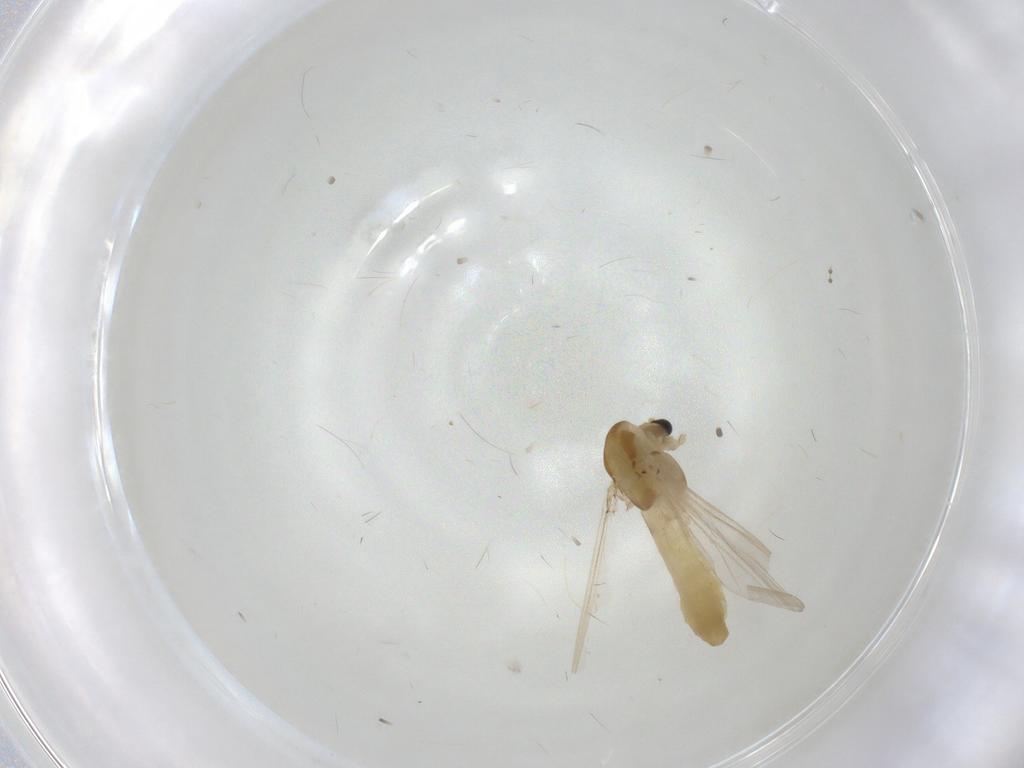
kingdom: Animalia
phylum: Arthropoda
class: Insecta
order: Diptera
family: Chironomidae
